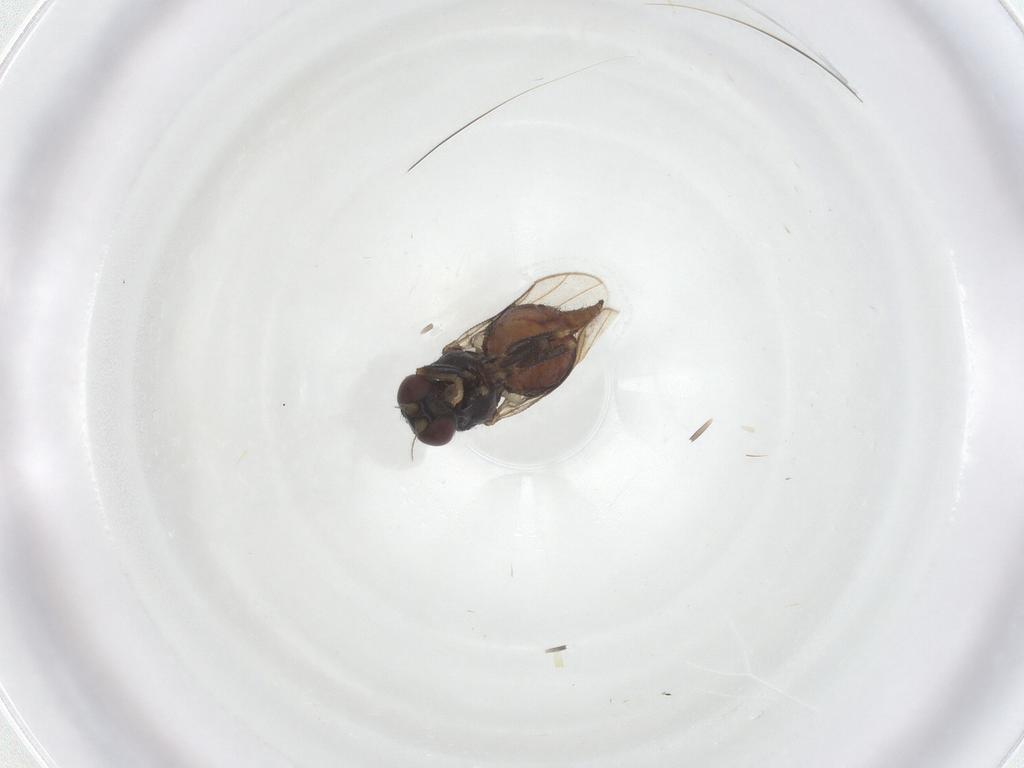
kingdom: Animalia
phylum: Arthropoda
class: Insecta
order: Diptera
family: Chloropidae
